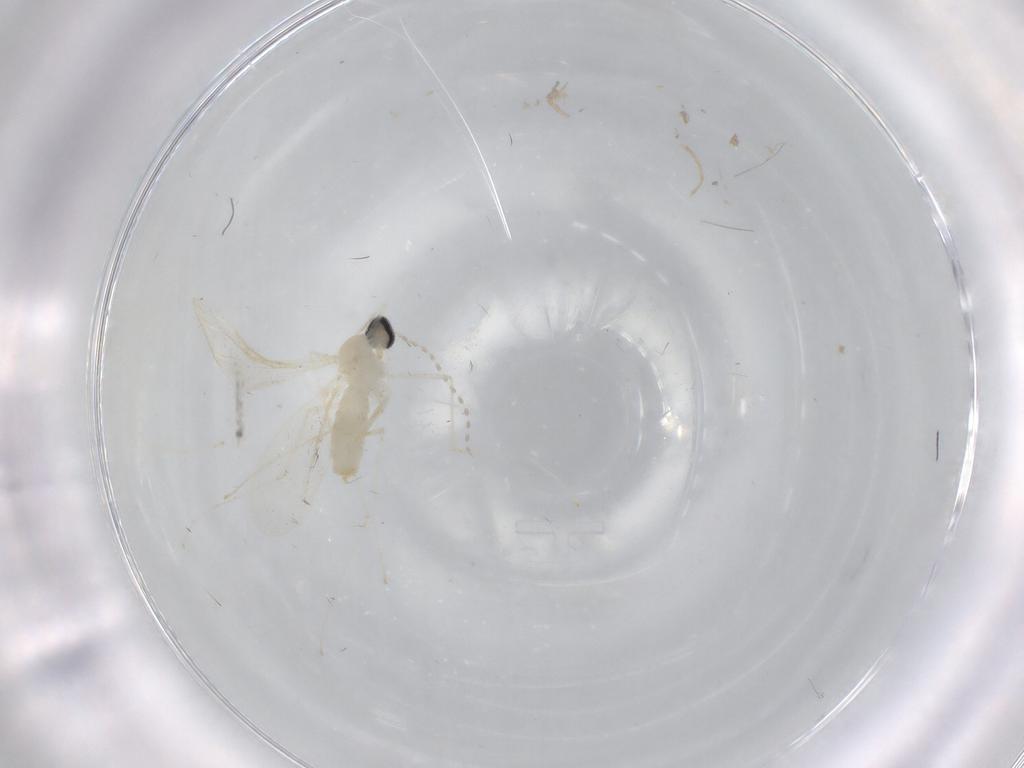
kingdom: Animalia
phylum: Arthropoda
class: Insecta
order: Diptera
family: Cecidomyiidae
